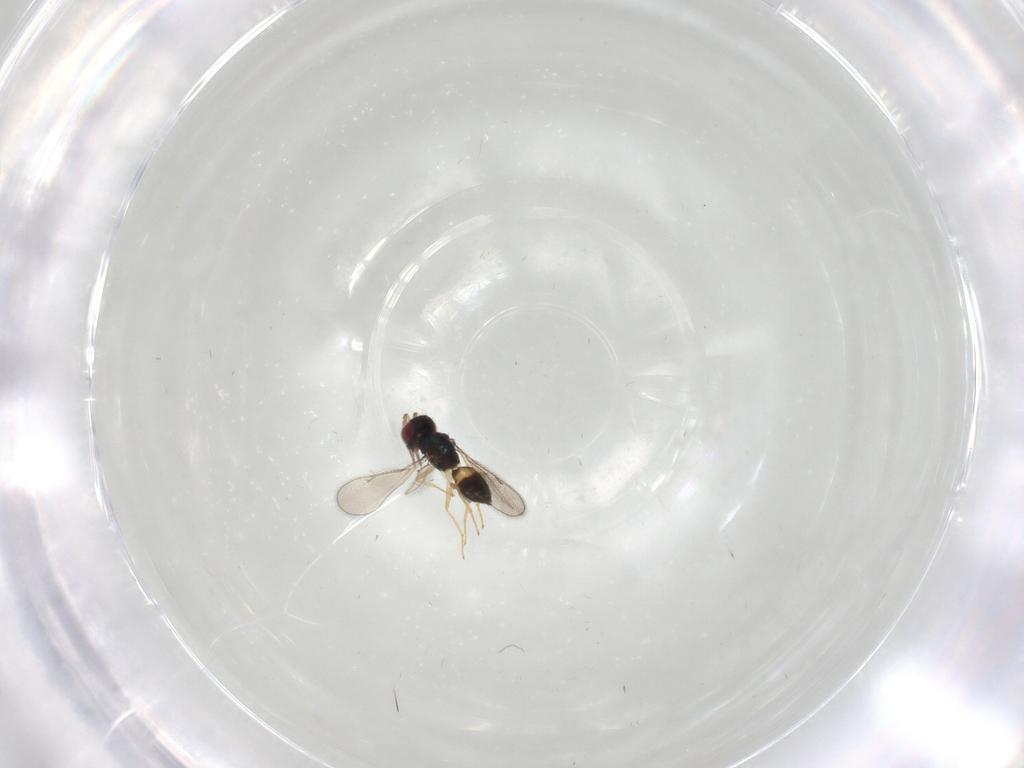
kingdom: Animalia
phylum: Arthropoda
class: Insecta
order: Hymenoptera
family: Eulophidae
